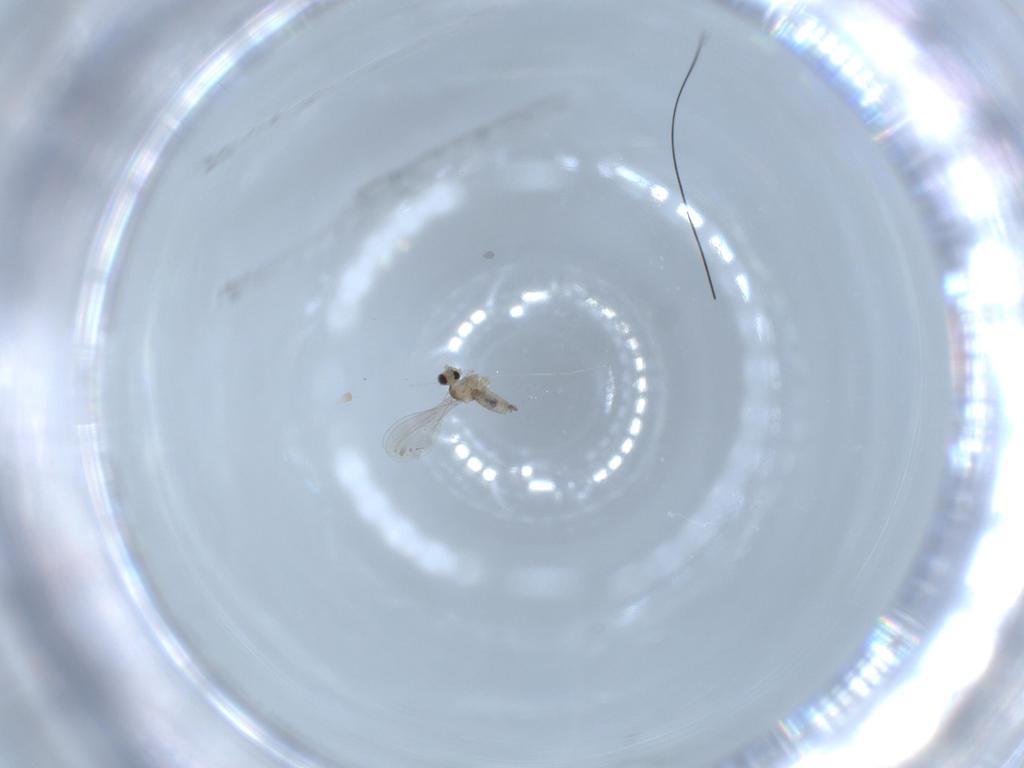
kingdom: Animalia
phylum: Arthropoda
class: Insecta
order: Diptera
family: Cecidomyiidae
